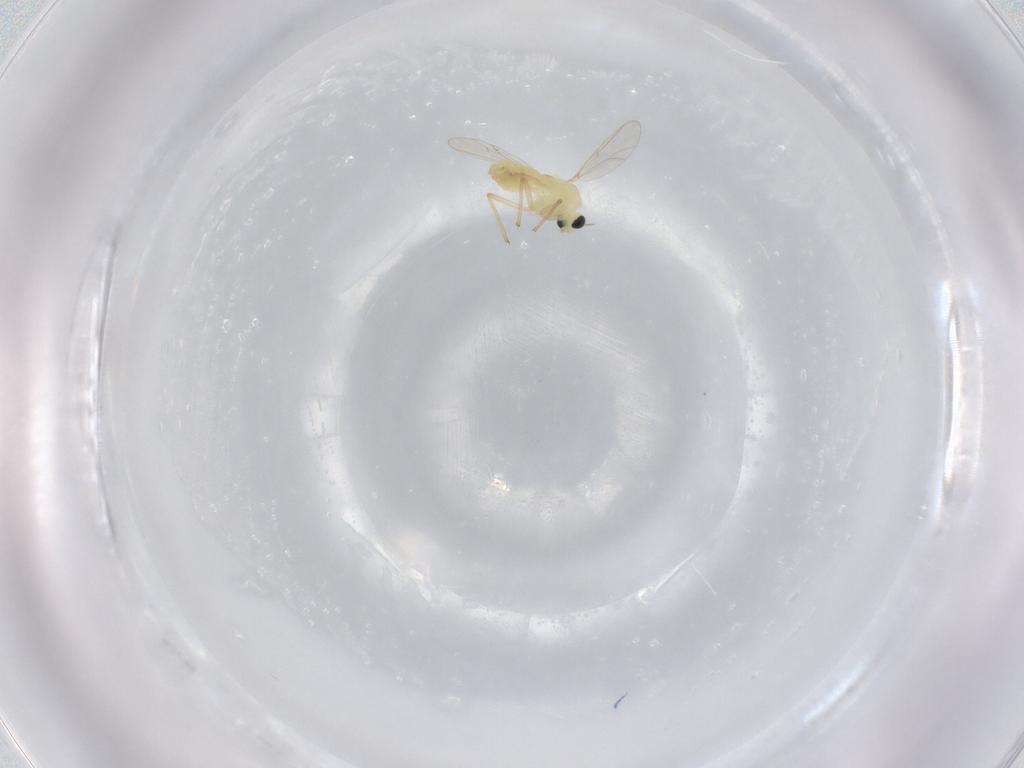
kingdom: Animalia
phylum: Arthropoda
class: Insecta
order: Diptera
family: Chironomidae
